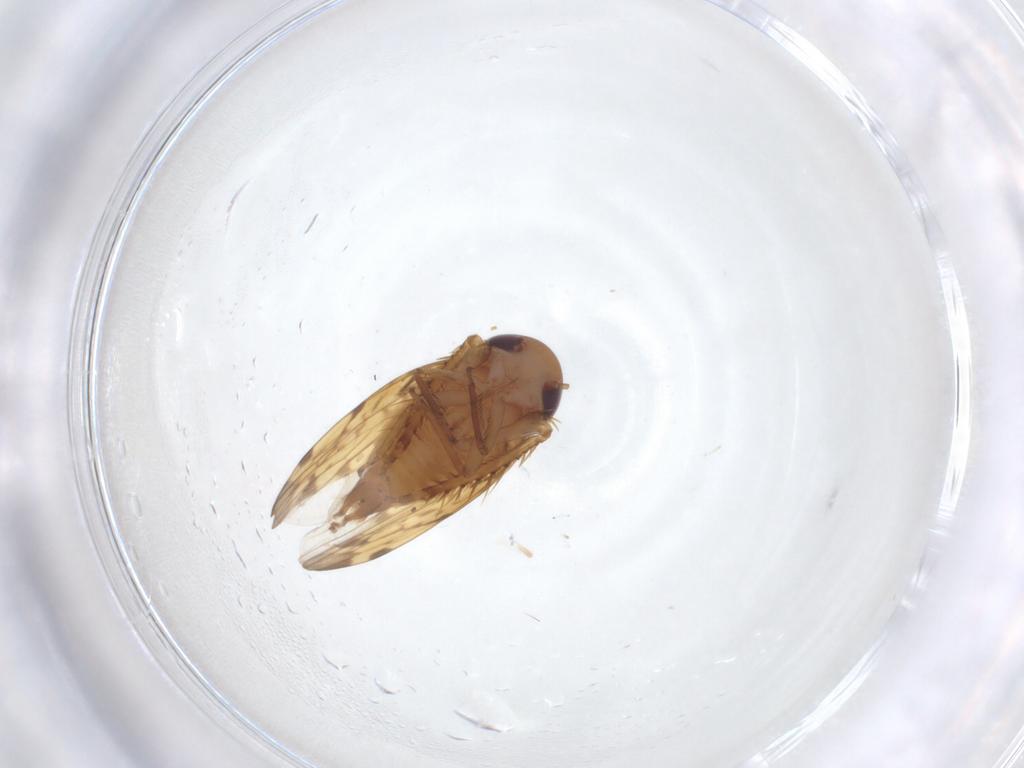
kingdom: Animalia
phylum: Arthropoda
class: Insecta
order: Hemiptera
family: Cicadellidae
